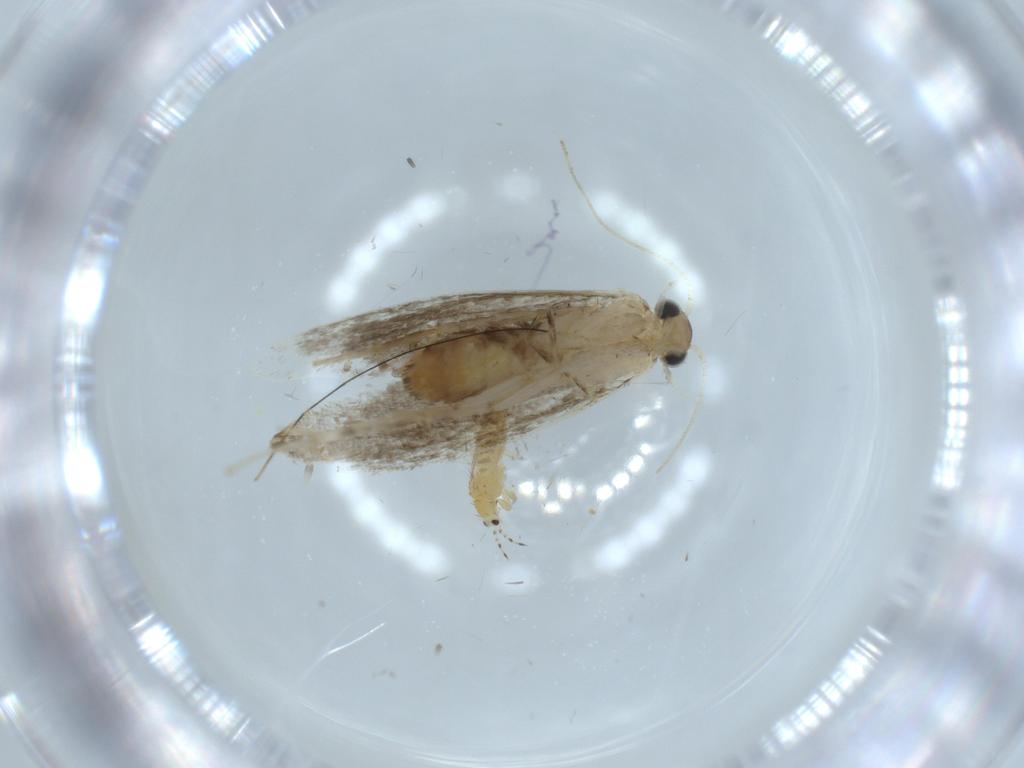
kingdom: Animalia
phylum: Arthropoda
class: Insecta
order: Lepidoptera
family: Tineidae
